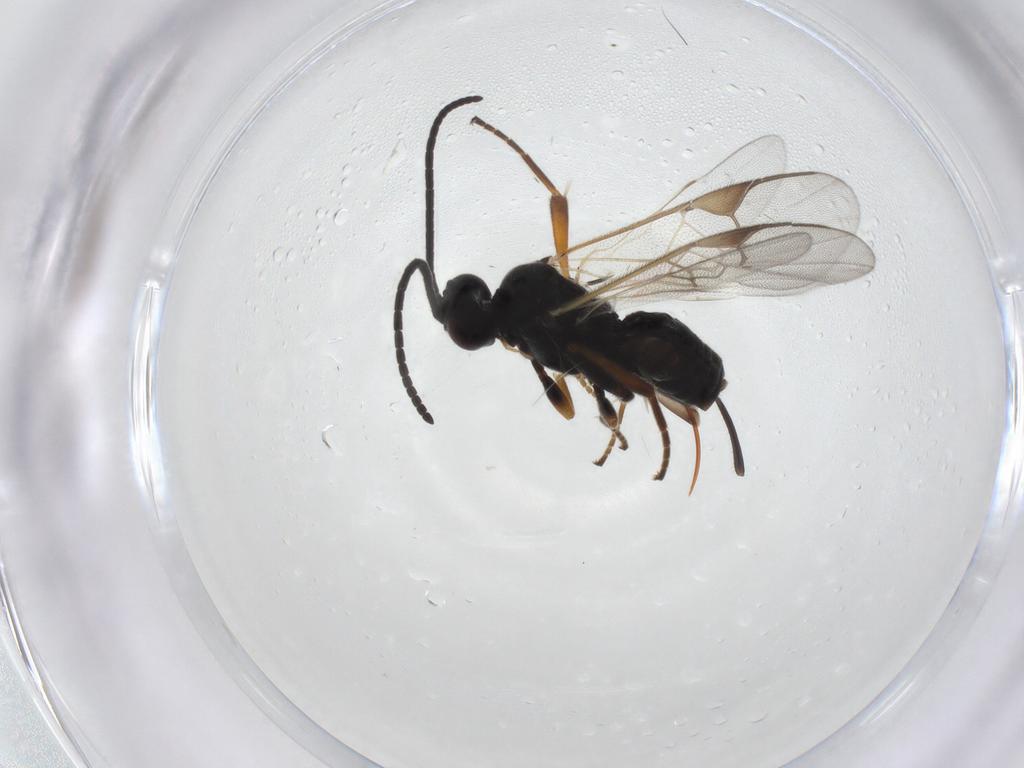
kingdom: Animalia
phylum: Arthropoda
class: Insecta
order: Hymenoptera
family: Braconidae
